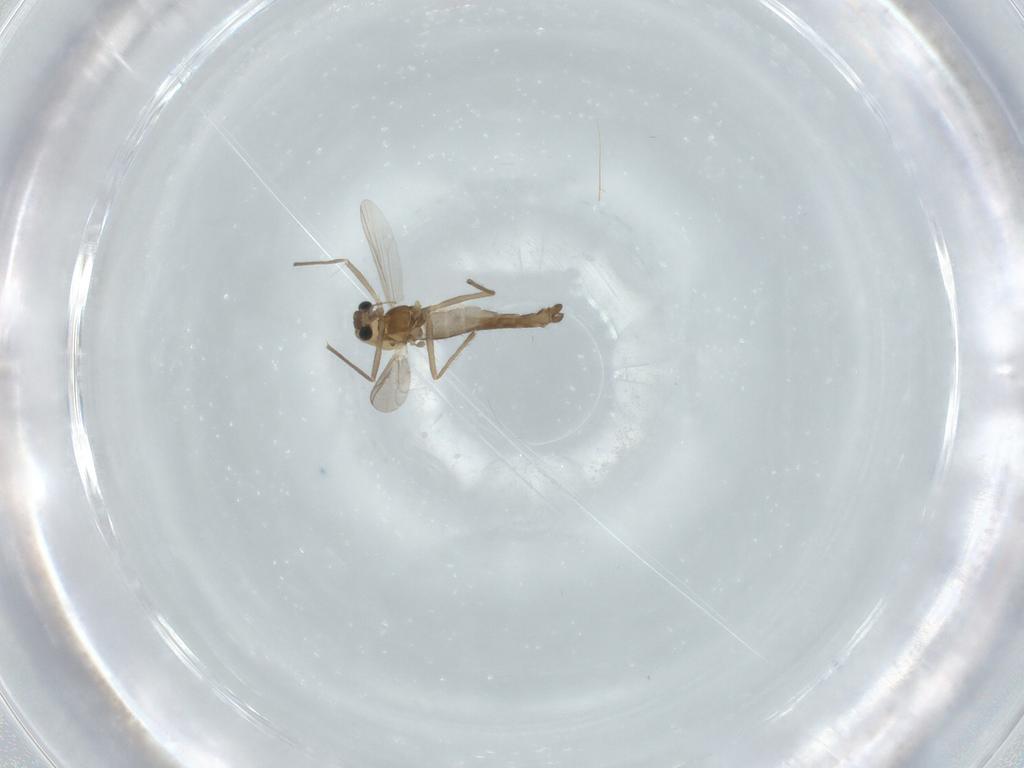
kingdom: Animalia
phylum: Arthropoda
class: Insecta
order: Diptera
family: Chironomidae
